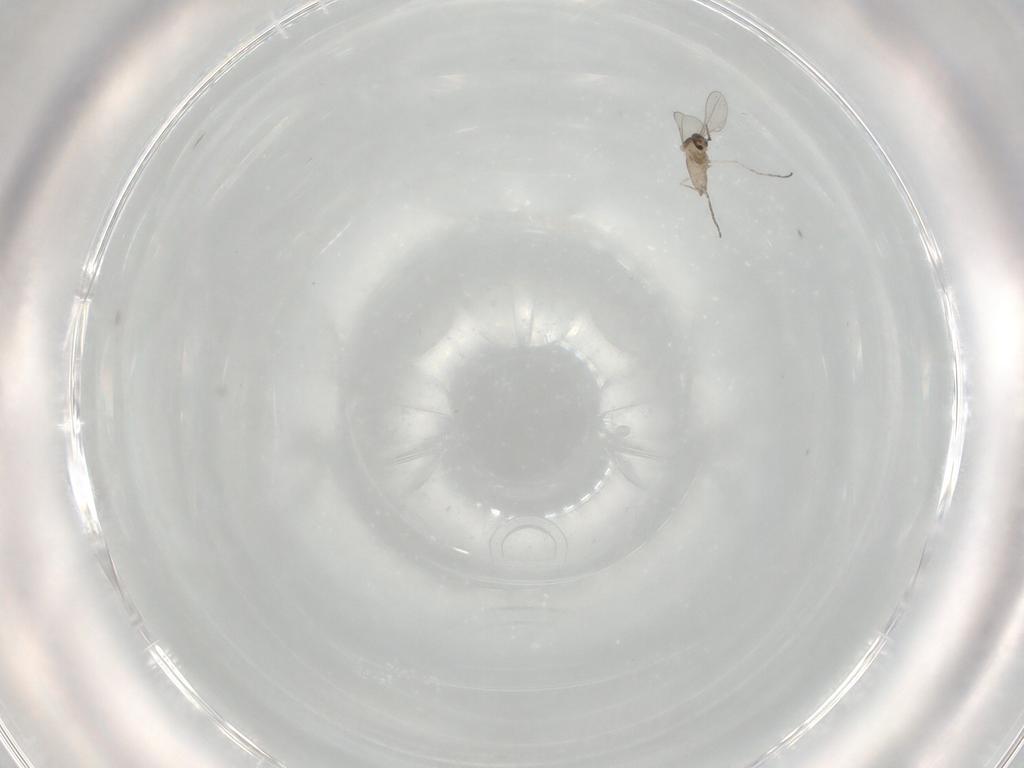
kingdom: Animalia
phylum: Arthropoda
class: Insecta
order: Diptera
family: Cecidomyiidae
